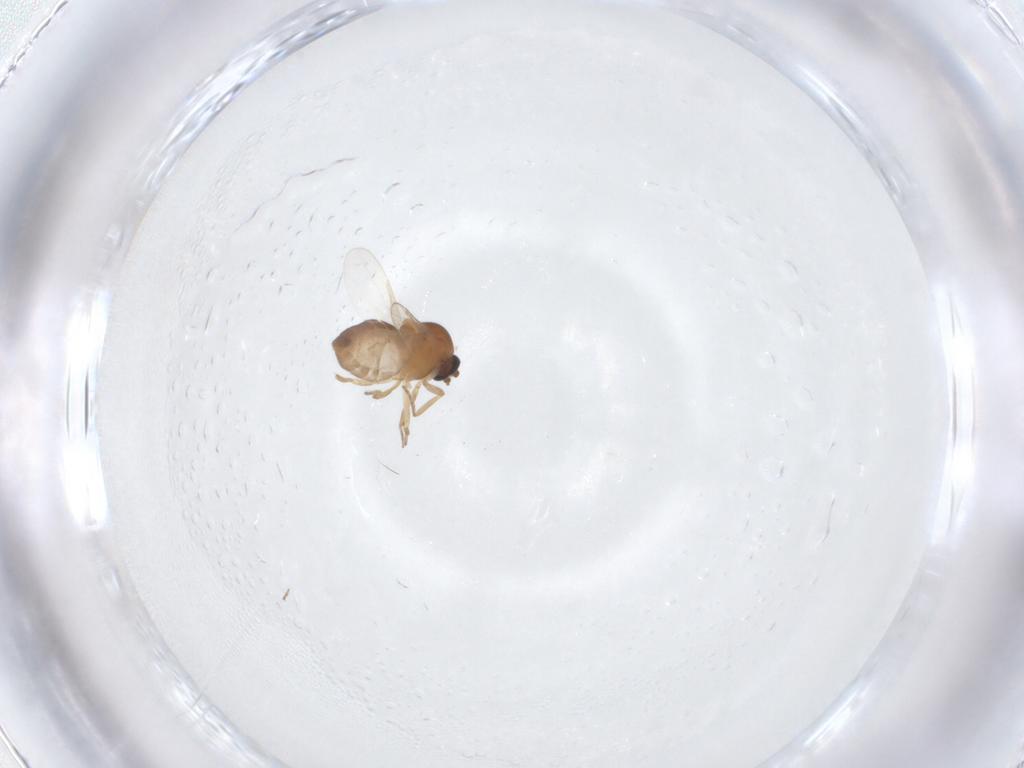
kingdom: Animalia
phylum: Arthropoda
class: Insecta
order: Diptera
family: Ceratopogonidae
